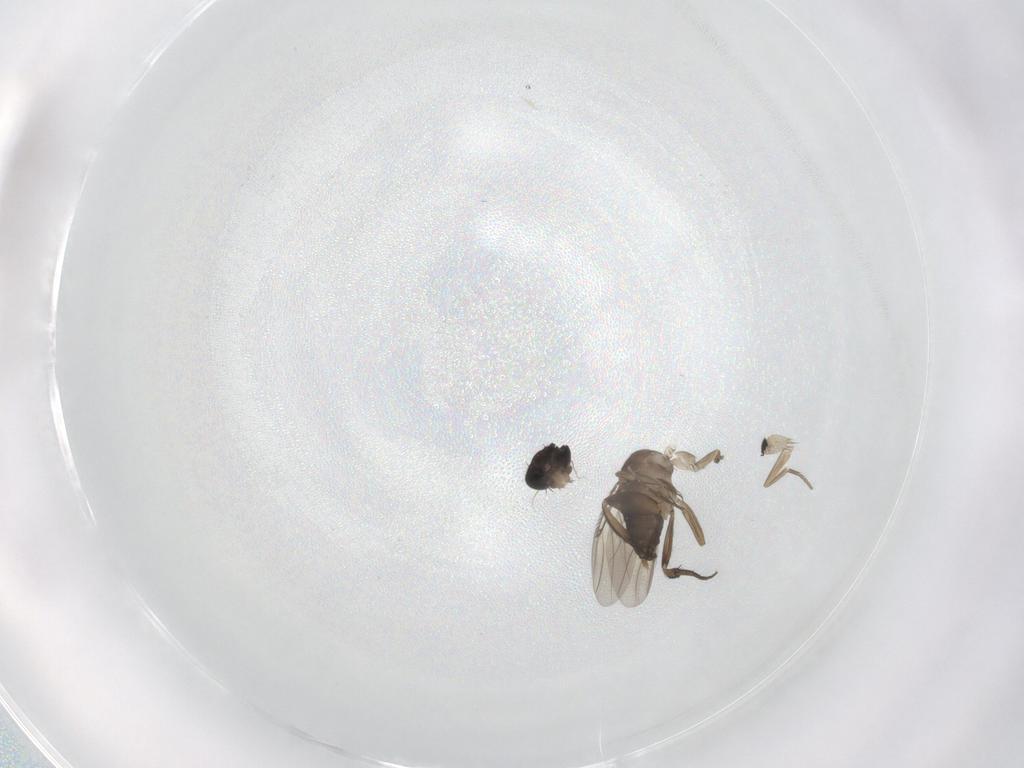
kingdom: Animalia
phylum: Arthropoda
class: Insecta
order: Diptera
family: Phoridae
